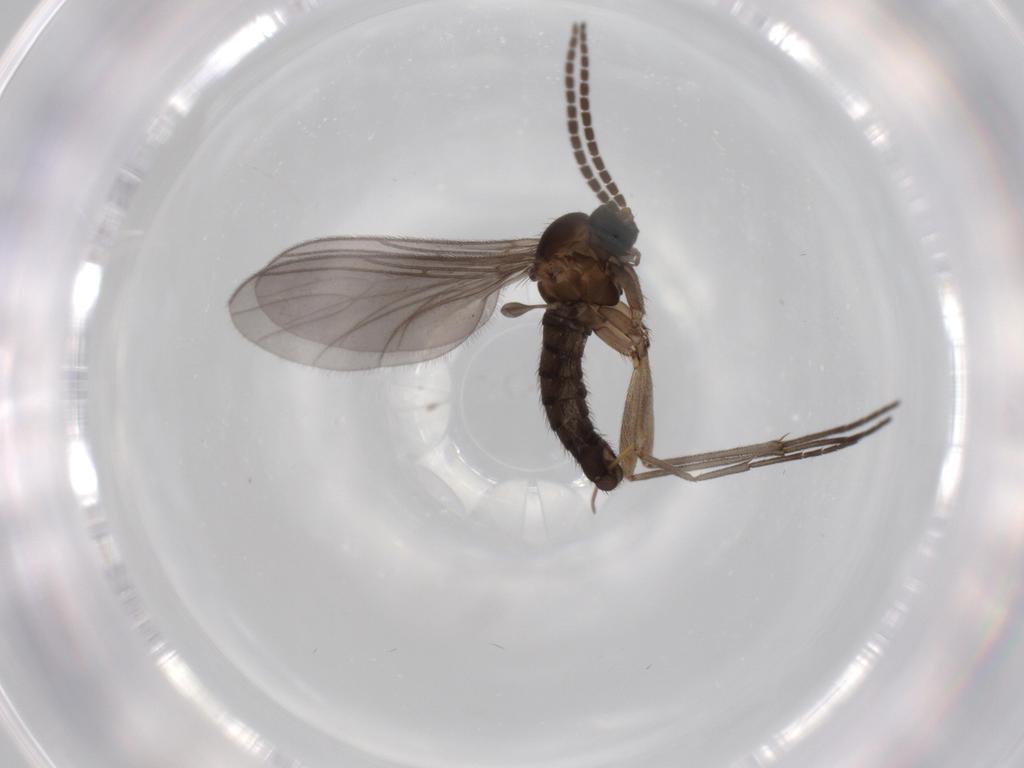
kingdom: Animalia
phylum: Arthropoda
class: Insecta
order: Diptera
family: Sciaridae
